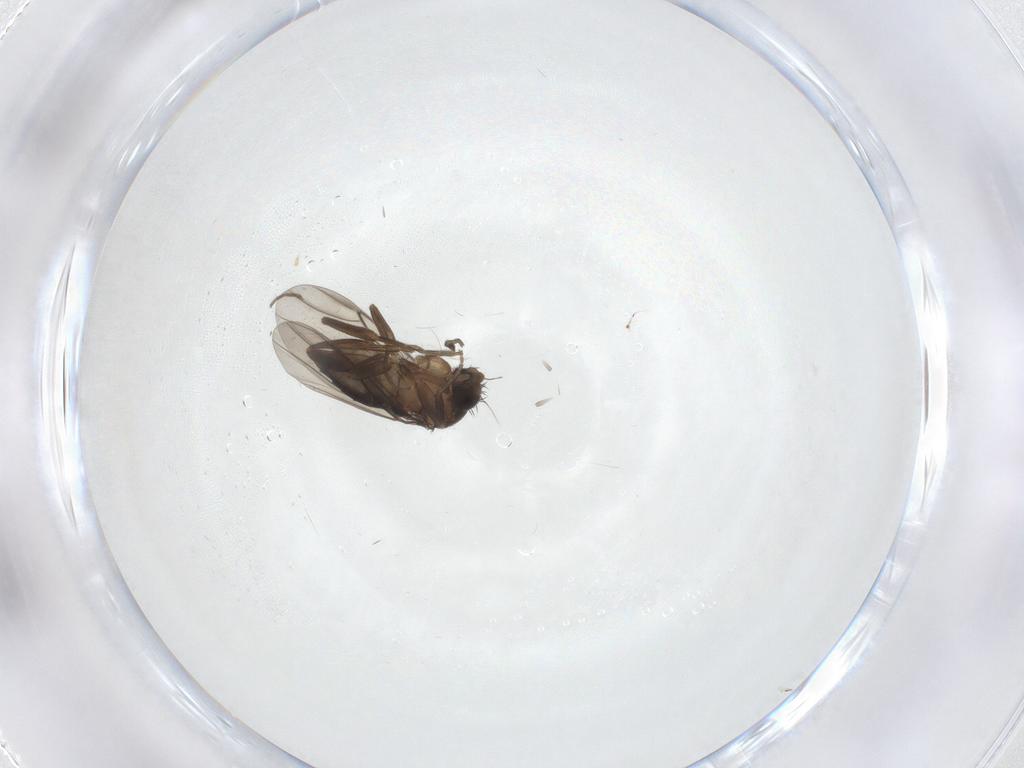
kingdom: Animalia
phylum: Arthropoda
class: Insecta
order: Diptera
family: Phoridae
